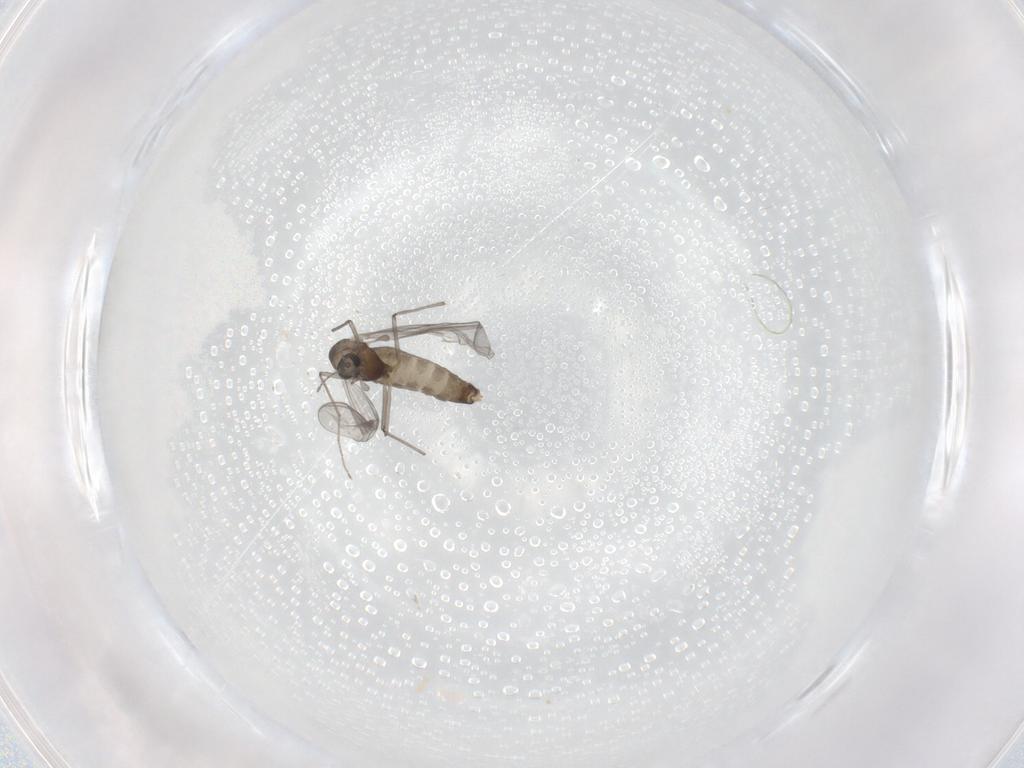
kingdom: Animalia
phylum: Arthropoda
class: Insecta
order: Diptera
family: Chironomidae
